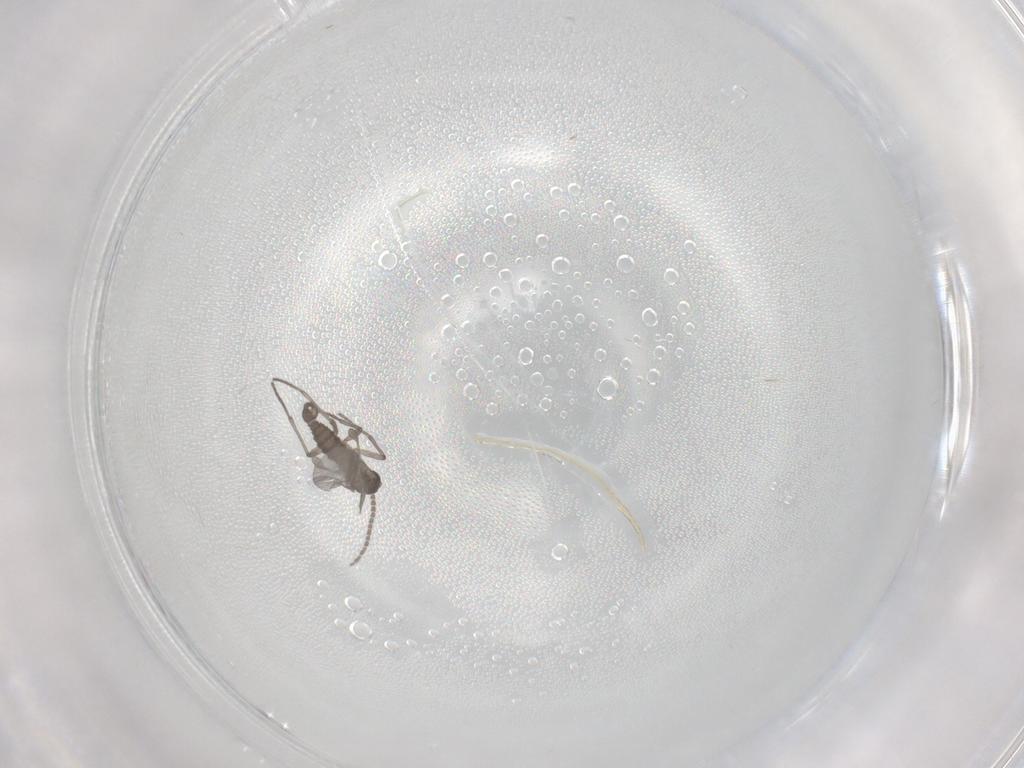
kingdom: Animalia
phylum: Arthropoda
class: Insecta
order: Diptera
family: Sciaridae
